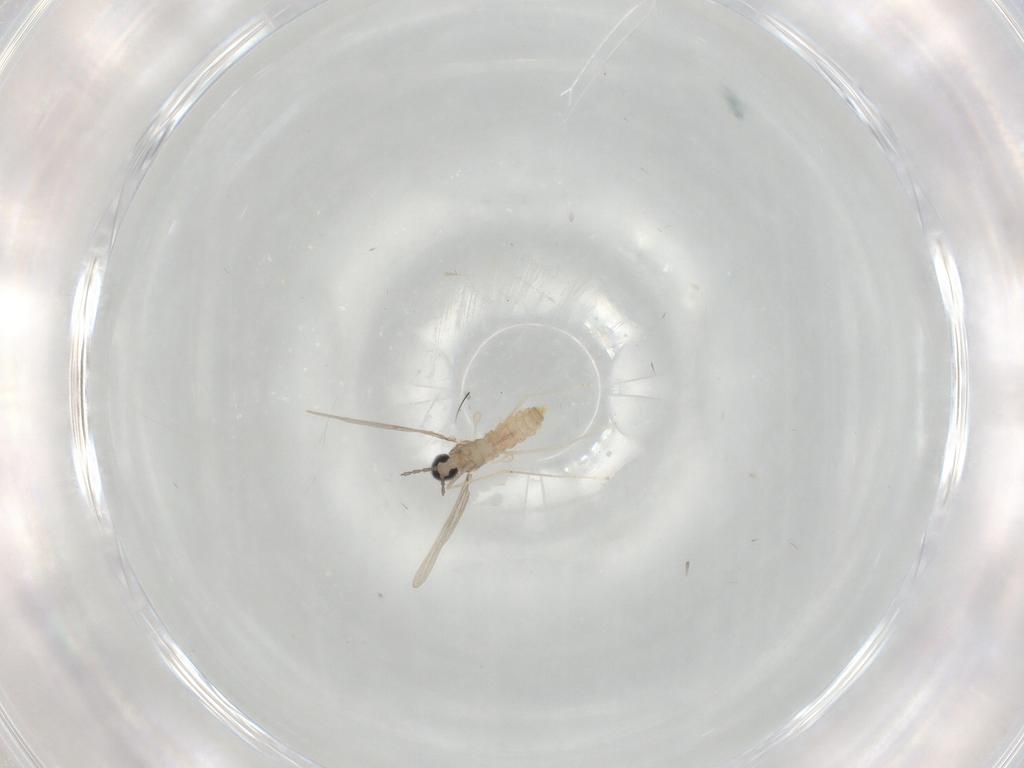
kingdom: Animalia
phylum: Arthropoda
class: Insecta
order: Diptera
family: Cecidomyiidae
